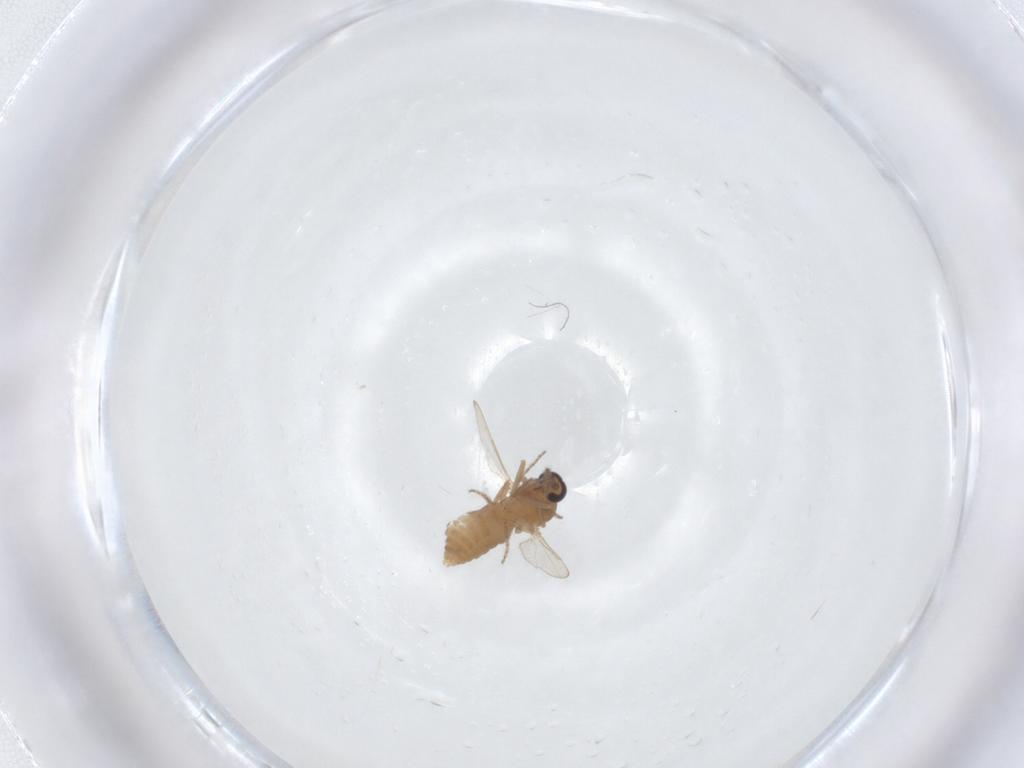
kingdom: Animalia
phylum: Arthropoda
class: Insecta
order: Diptera
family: Ceratopogonidae
